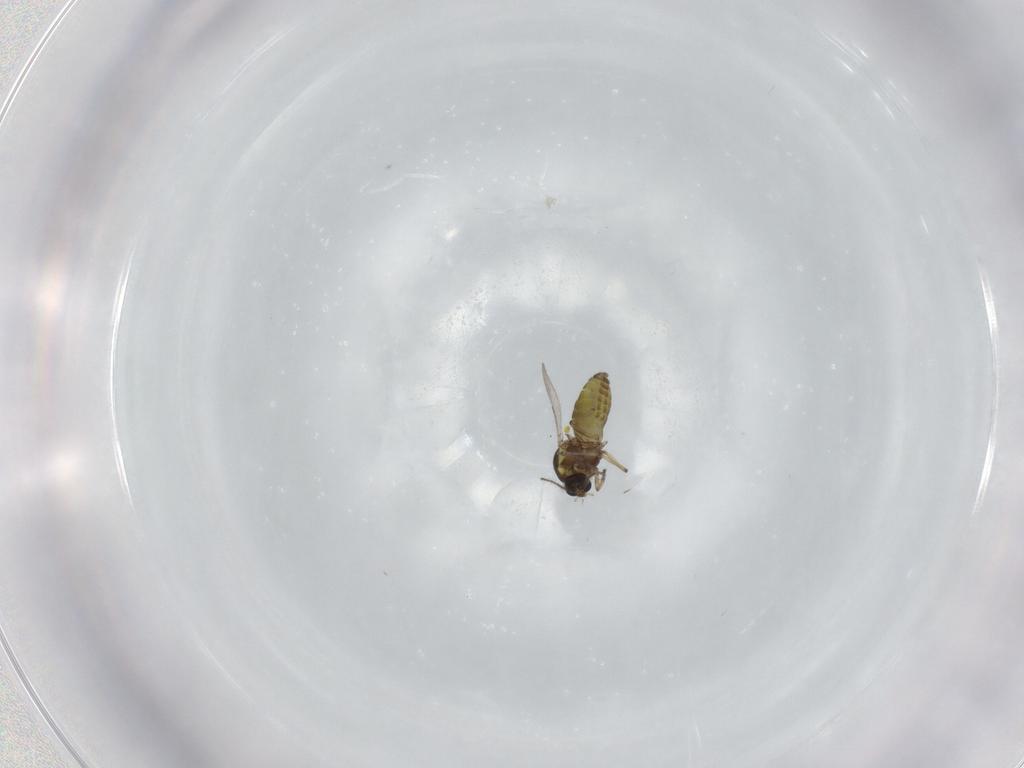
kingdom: Animalia
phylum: Arthropoda
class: Insecta
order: Diptera
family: Ceratopogonidae
